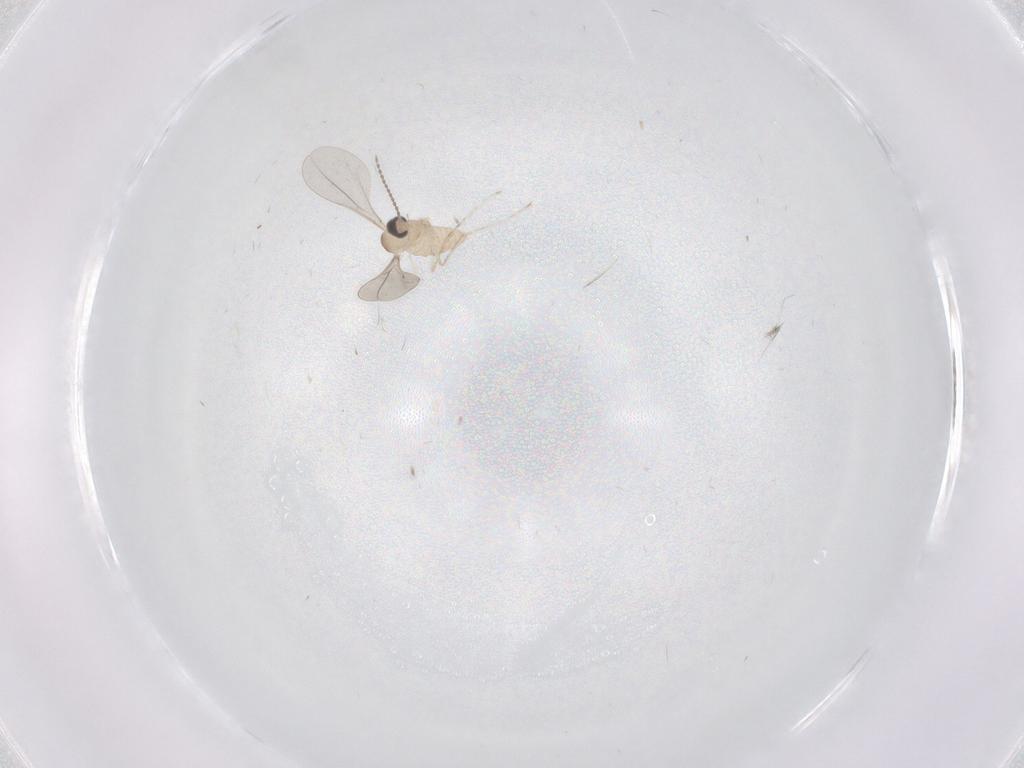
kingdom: Animalia
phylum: Arthropoda
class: Insecta
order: Diptera
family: Cecidomyiidae
